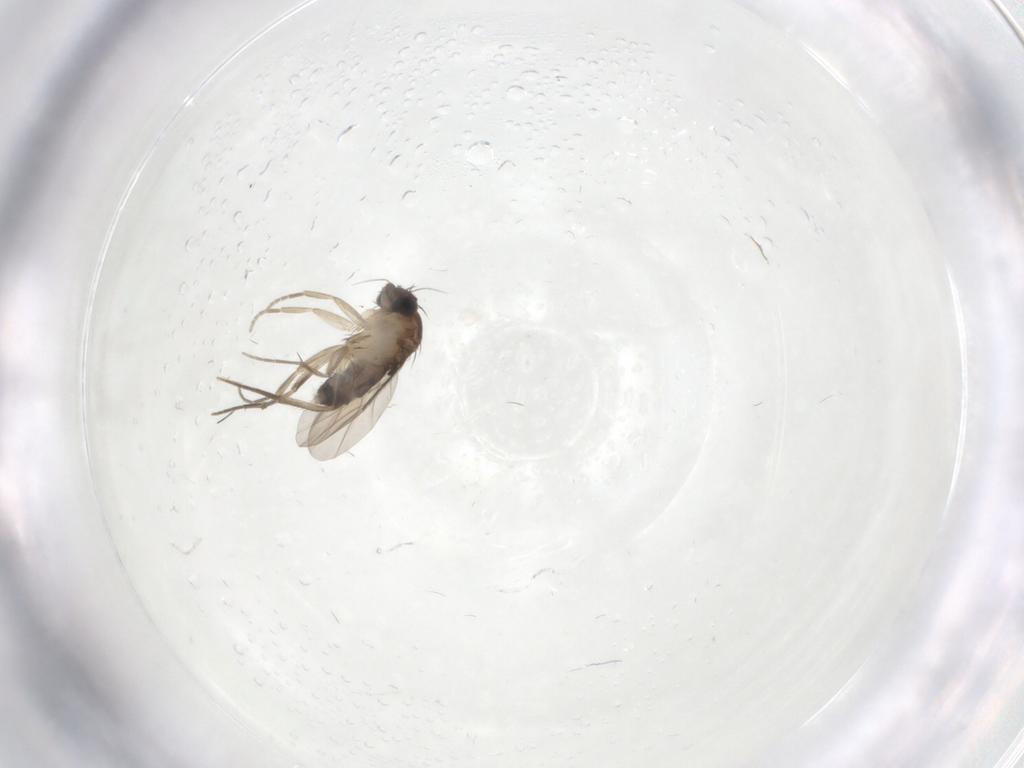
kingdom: Animalia
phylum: Arthropoda
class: Insecta
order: Diptera
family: Phoridae
